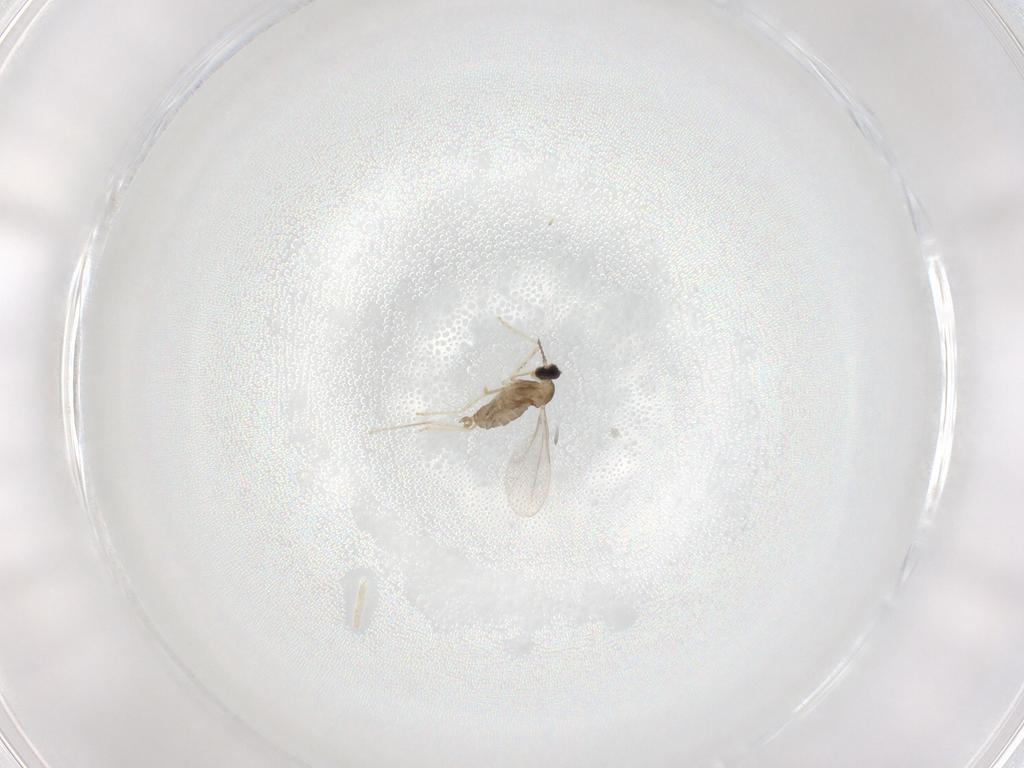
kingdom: Animalia
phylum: Arthropoda
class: Insecta
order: Diptera
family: Cecidomyiidae
